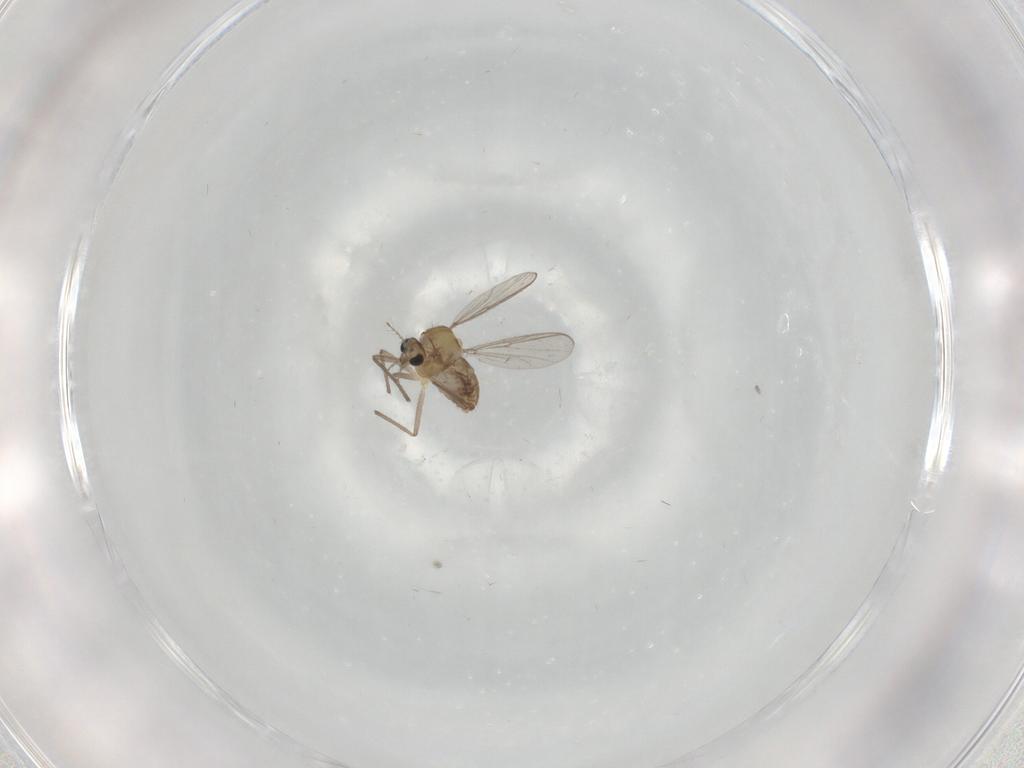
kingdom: Animalia
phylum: Arthropoda
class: Insecta
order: Diptera
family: Chironomidae
